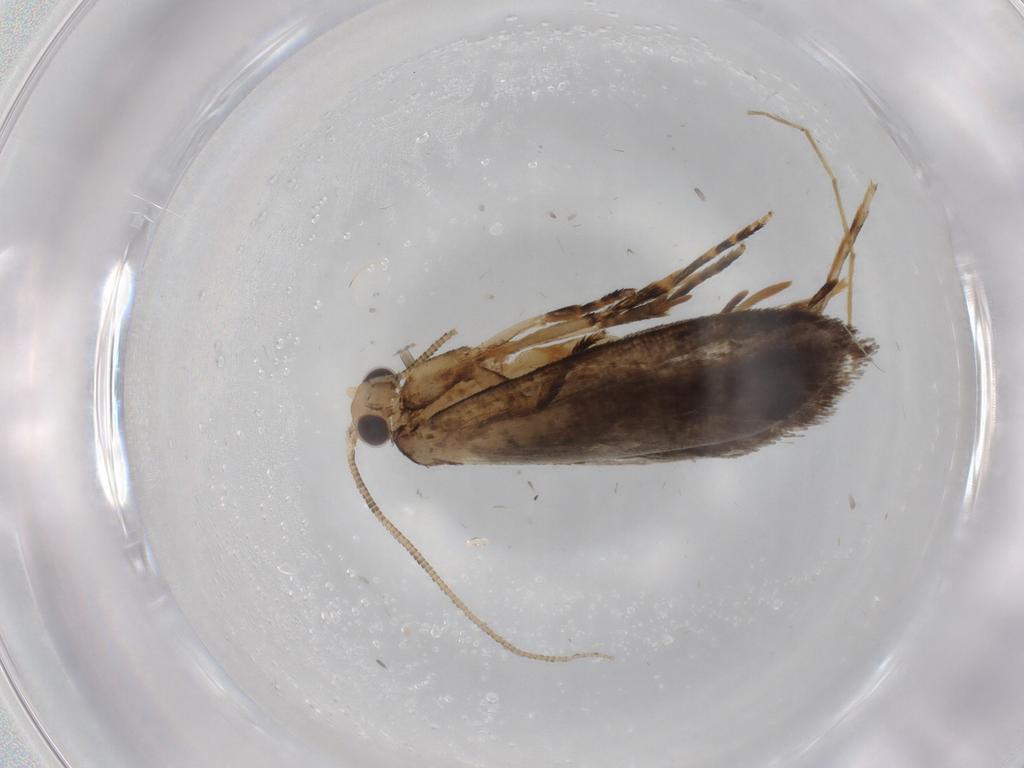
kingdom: Animalia
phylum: Arthropoda
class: Insecta
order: Lepidoptera
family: Tineidae
